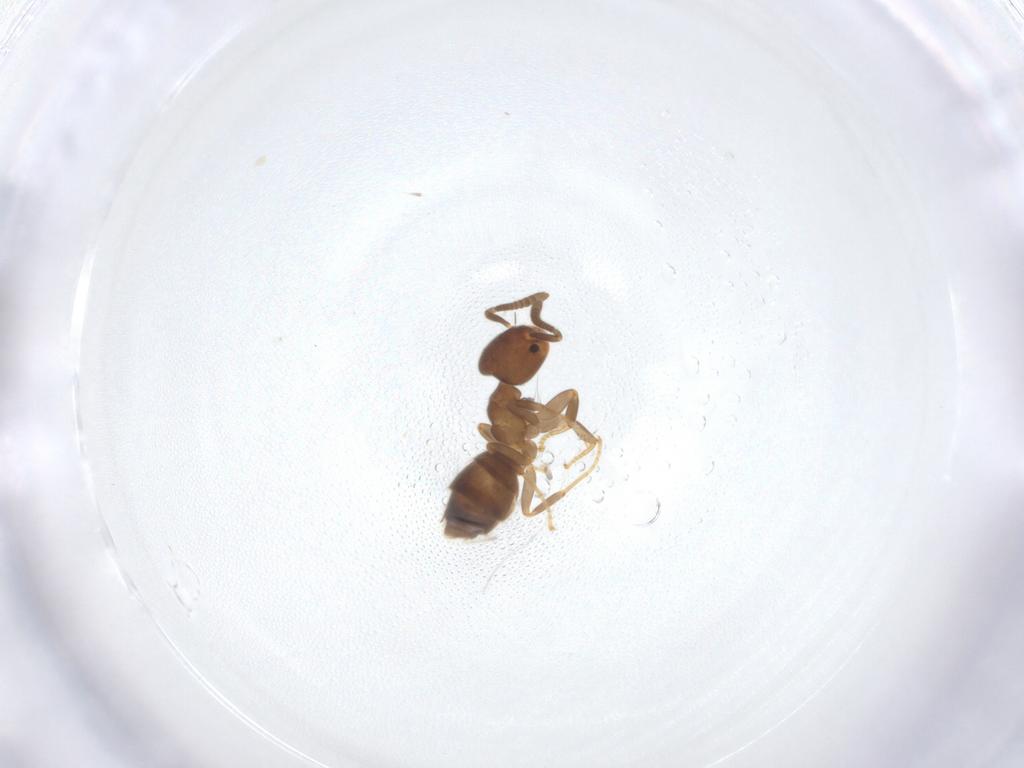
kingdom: Animalia
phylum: Arthropoda
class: Insecta
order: Hymenoptera
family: Formicidae
